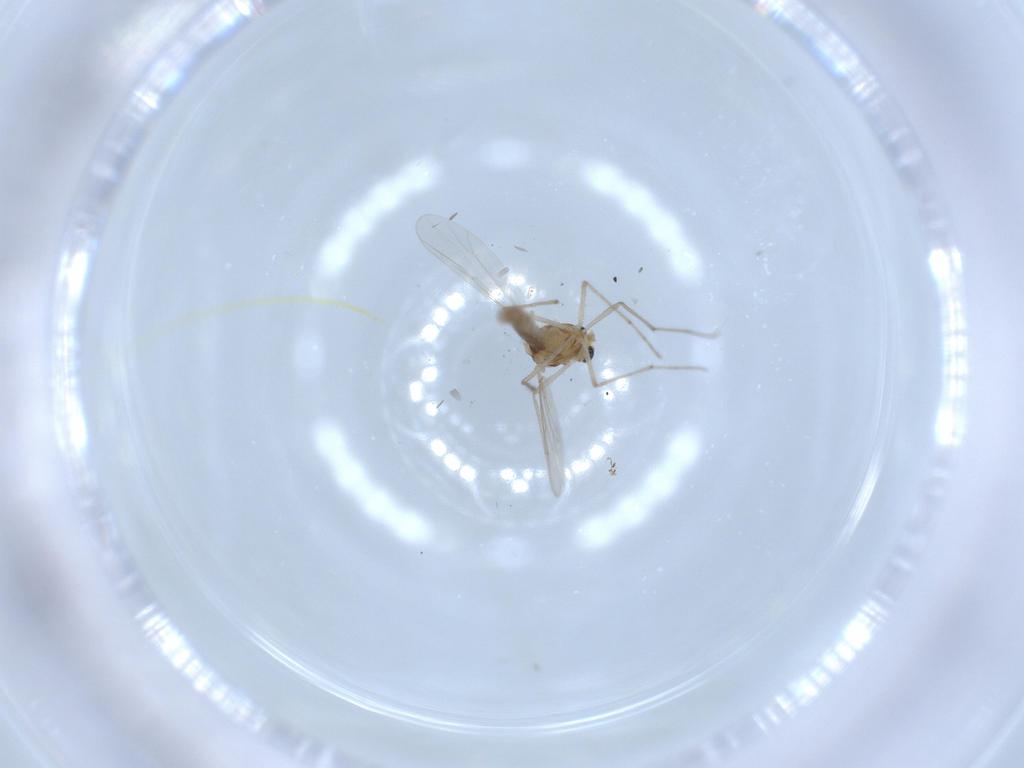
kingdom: Animalia
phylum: Arthropoda
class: Insecta
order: Diptera
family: Chironomidae
